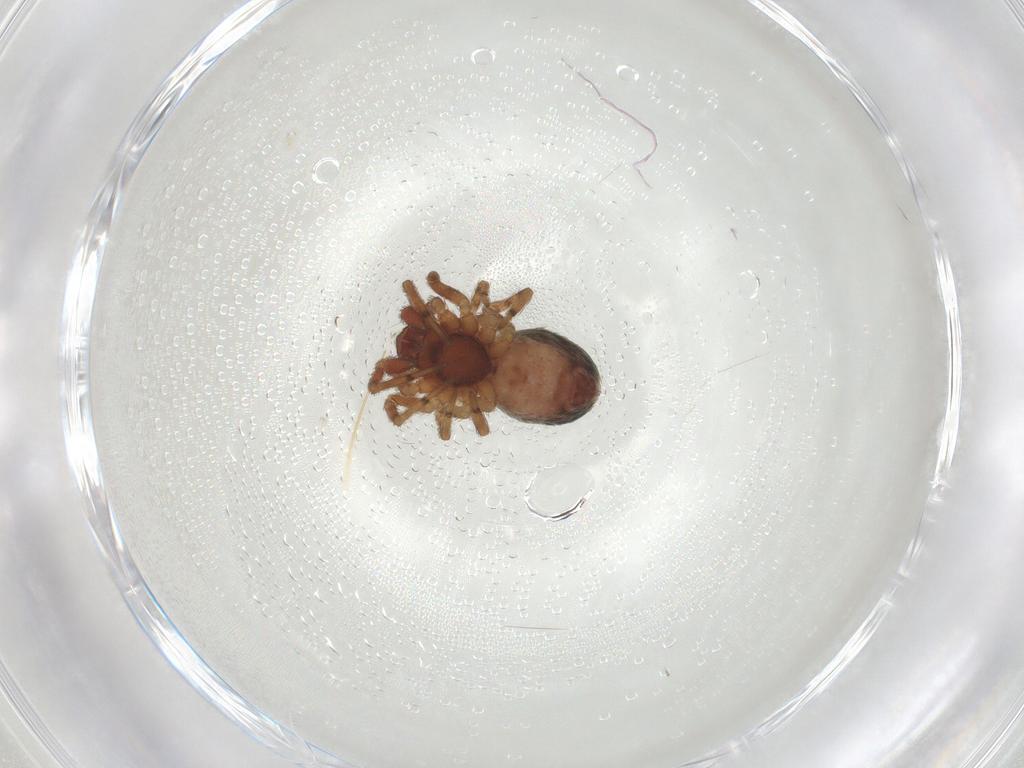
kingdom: Animalia
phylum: Arthropoda
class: Arachnida
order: Araneae
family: Dictynidae
